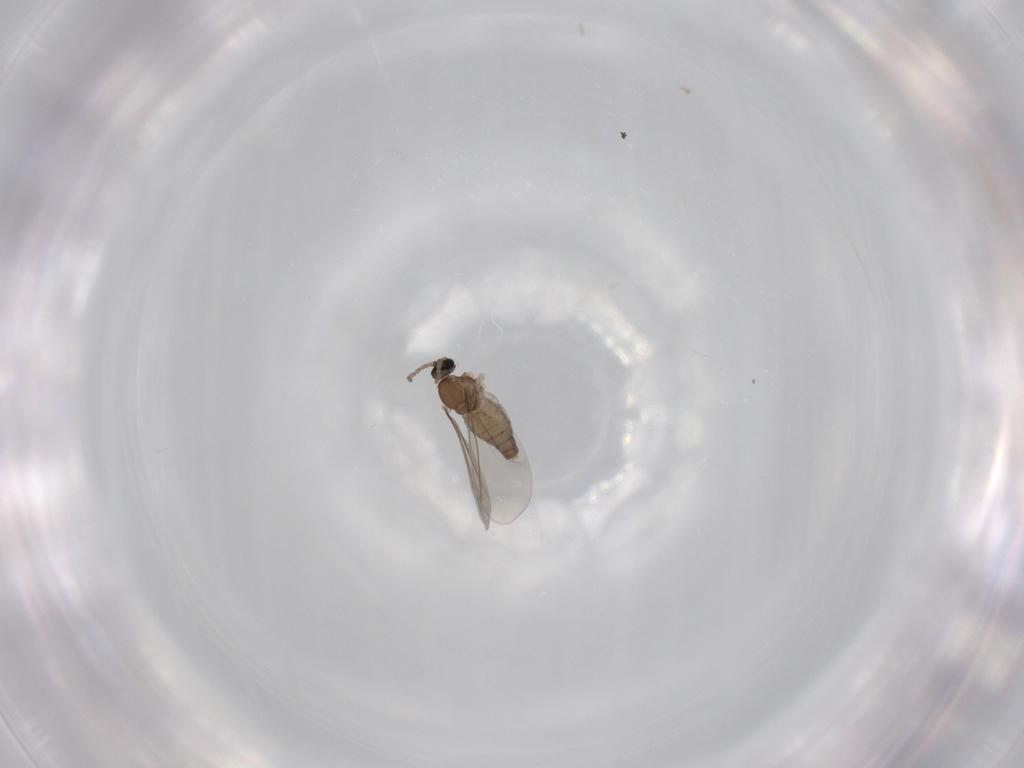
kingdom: Animalia
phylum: Arthropoda
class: Insecta
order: Diptera
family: Cecidomyiidae
